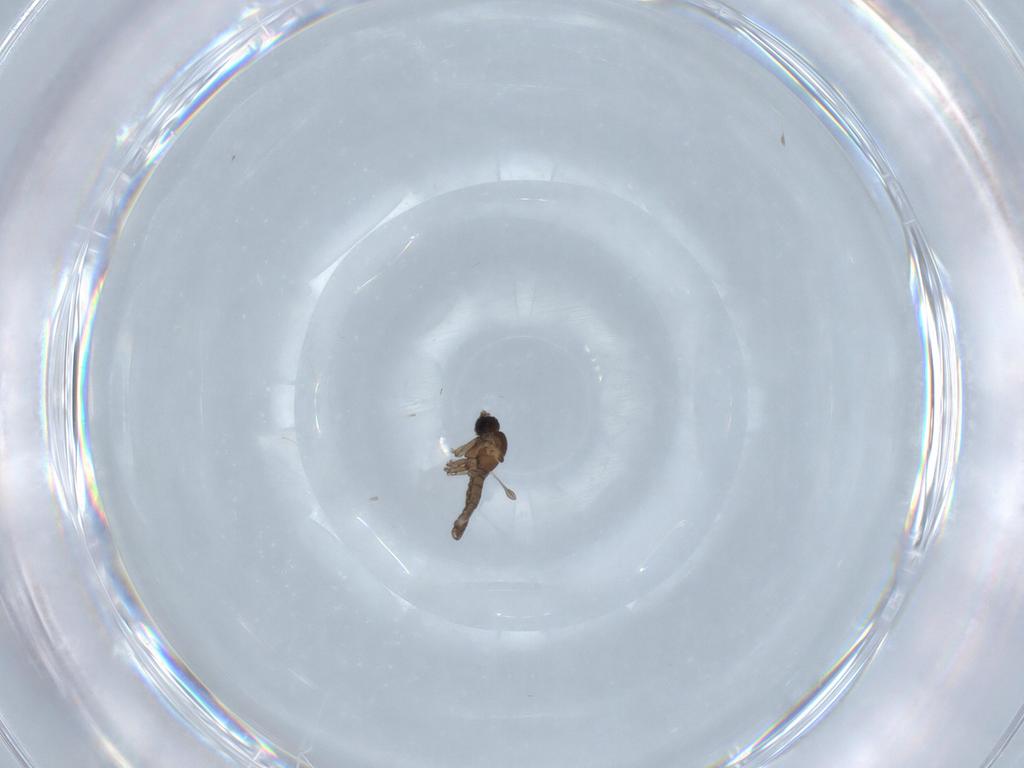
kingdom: Animalia
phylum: Arthropoda
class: Insecta
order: Diptera
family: Sciaridae
